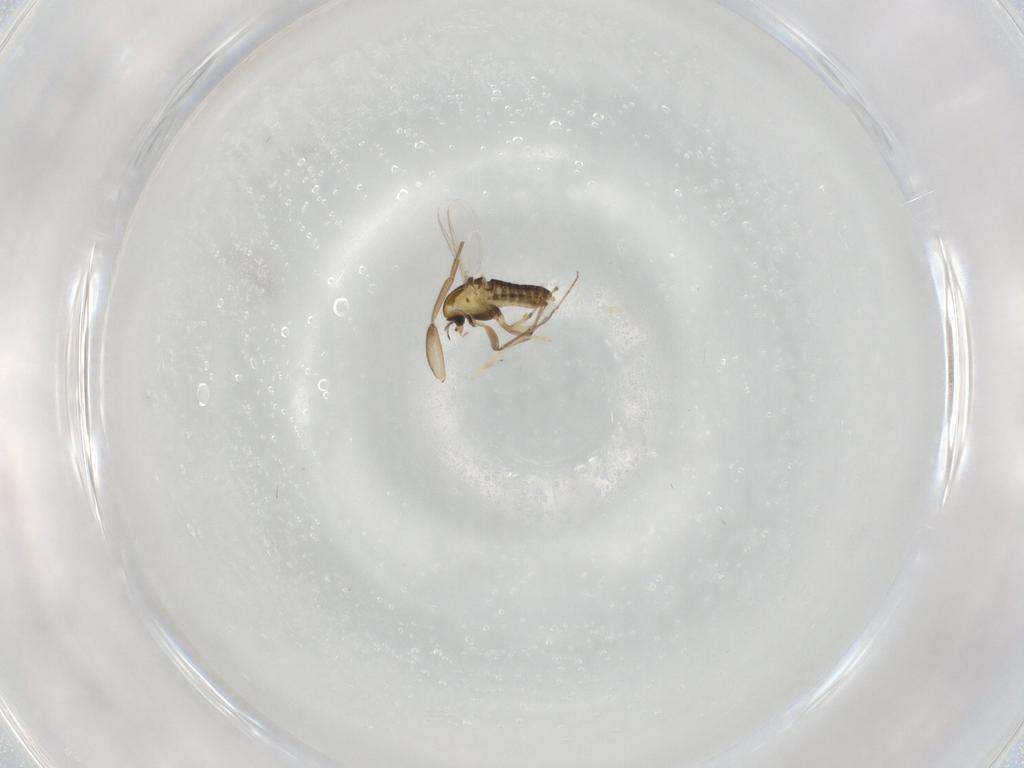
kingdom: Animalia
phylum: Arthropoda
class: Insecta
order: Diptera
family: Chironomidae
